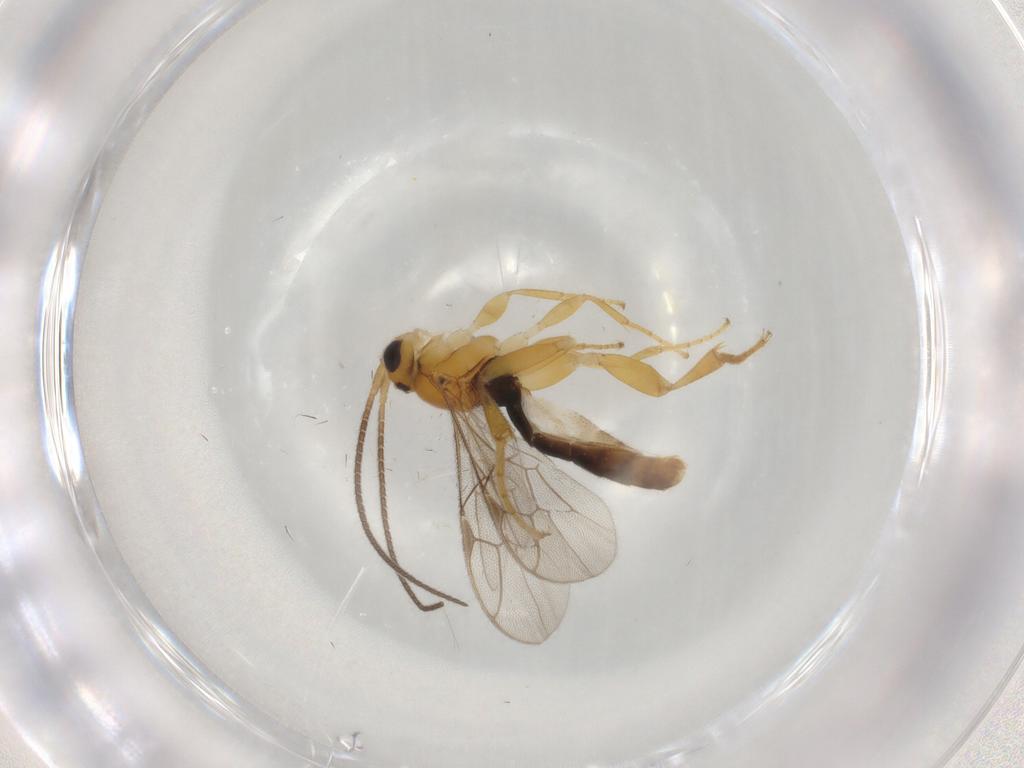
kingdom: Animalia
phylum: Arthropoda
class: Insecta
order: Hymenoptera
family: Ichneumonidae
